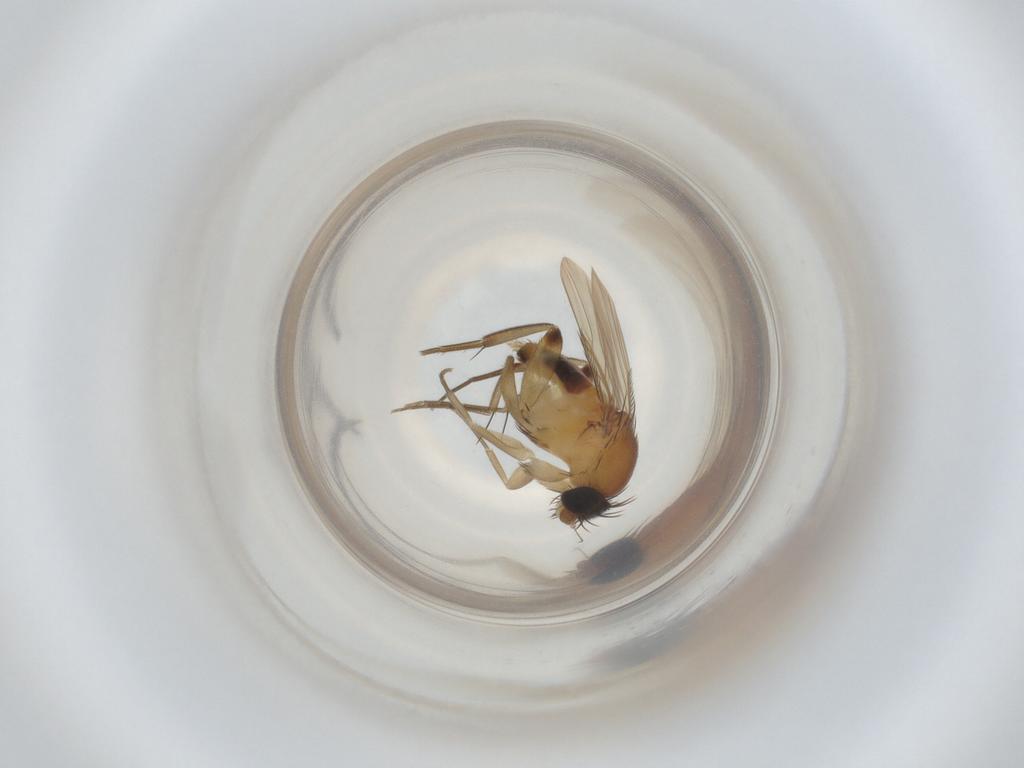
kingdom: Animalia
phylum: Arthropoda
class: Insecta
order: Diptera
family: Phoridae
